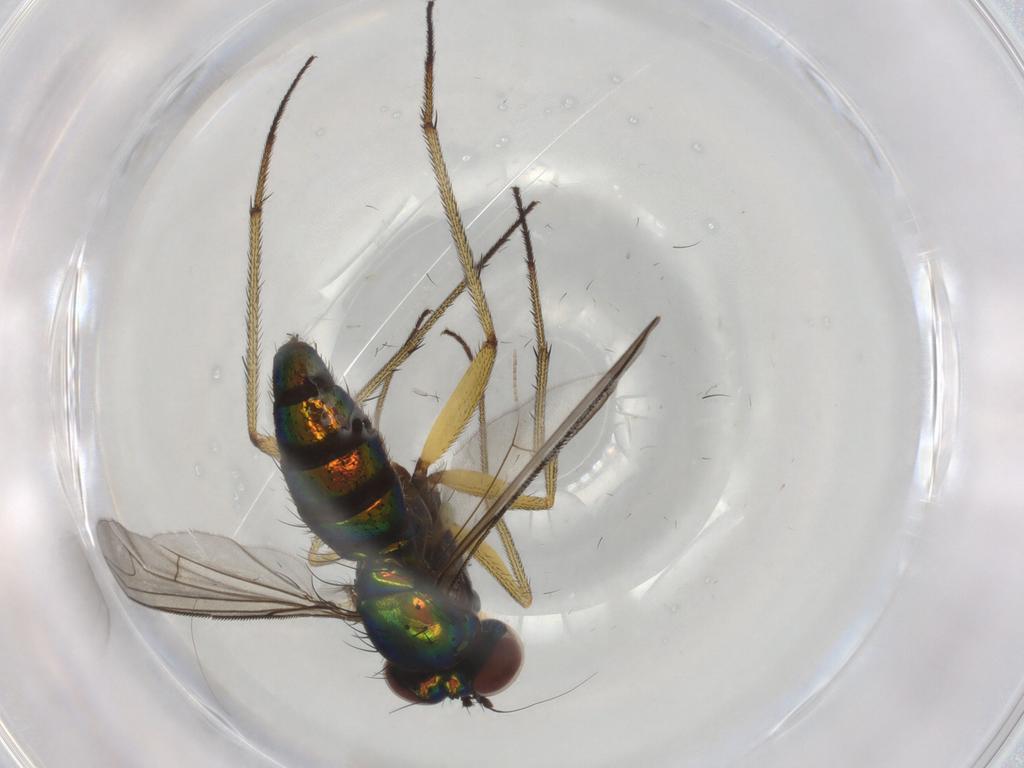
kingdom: Animalia
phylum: Arthropoda
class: Insecta
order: Diptera
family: Dolichopodidae
